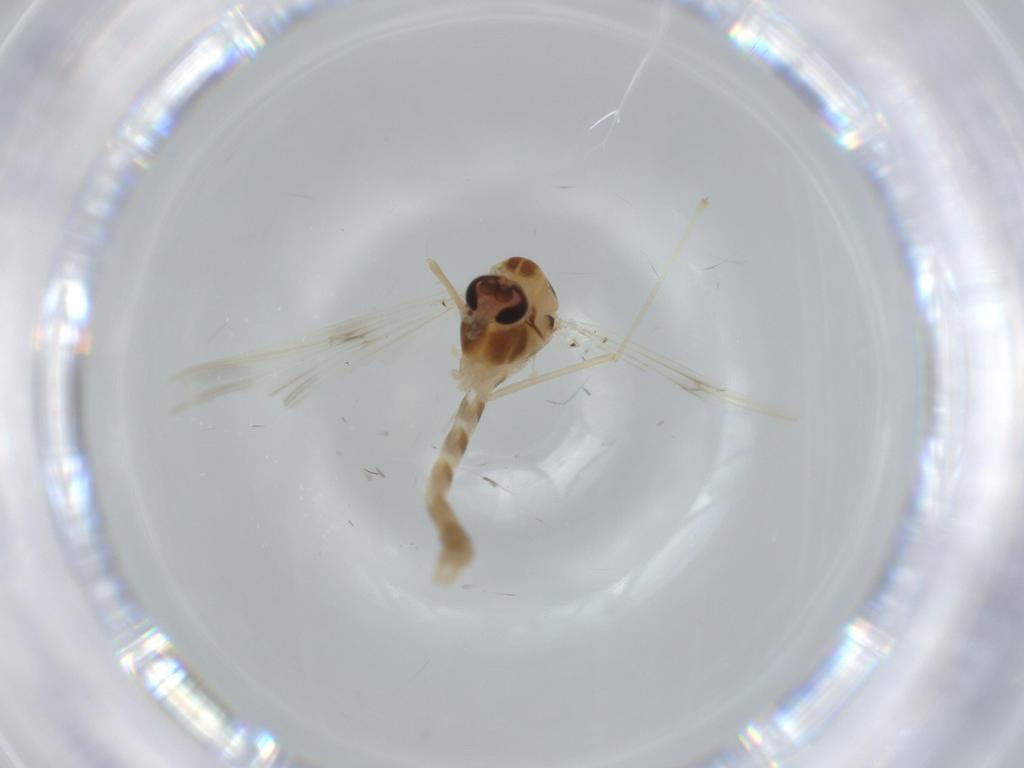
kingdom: Animalia
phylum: Arthropoda
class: Insecta
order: Diptera
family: Chironomidae
